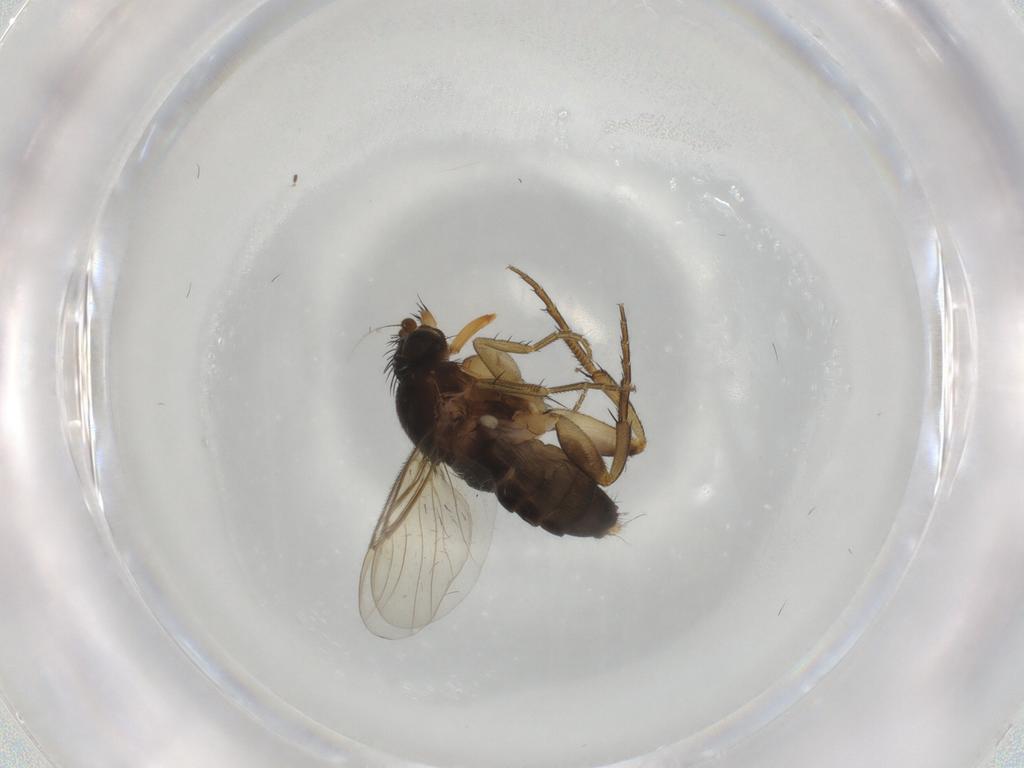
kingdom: Animalia
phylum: Arthropoda
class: Insecta
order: Diptera
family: Phoridae
